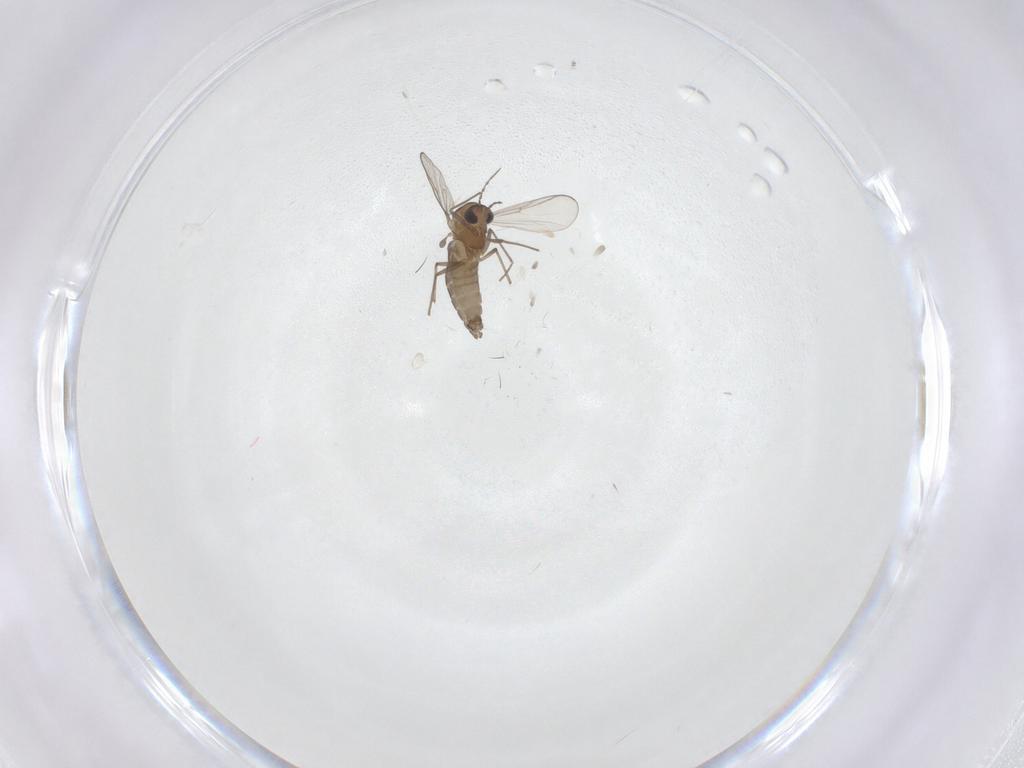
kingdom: Animalia
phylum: Arthropoda
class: Insecta
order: Diptera
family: Chironomidae
